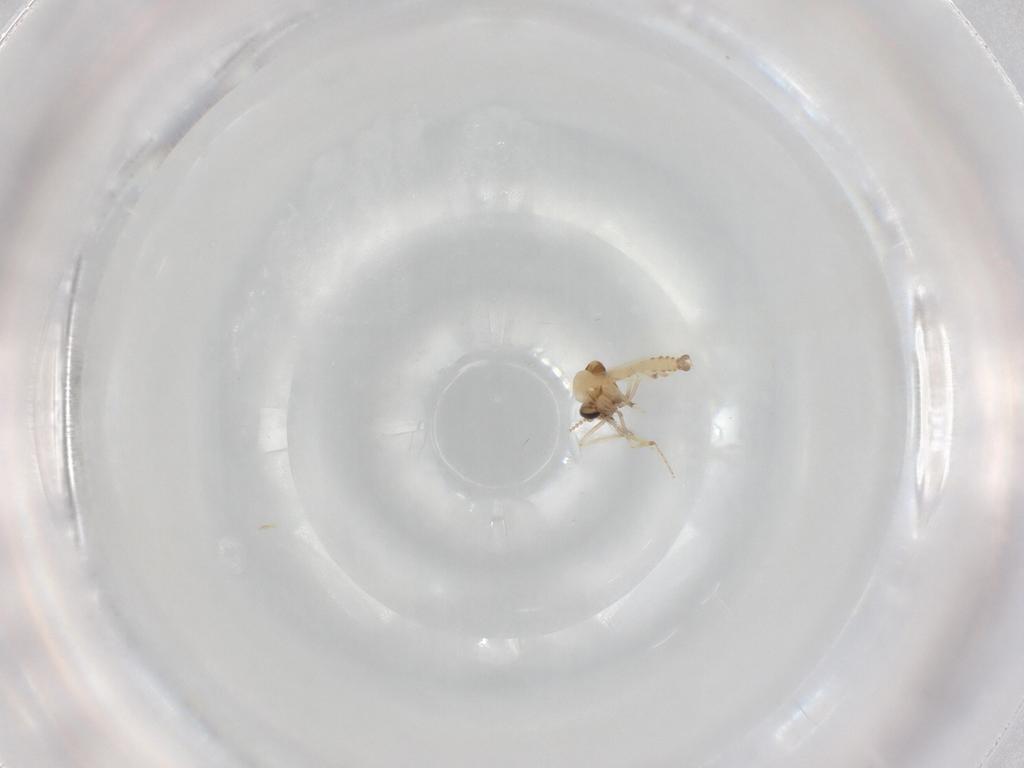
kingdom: Animalia
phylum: Arthropoda
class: Insecta
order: Diptera
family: Ceratopogonidae
